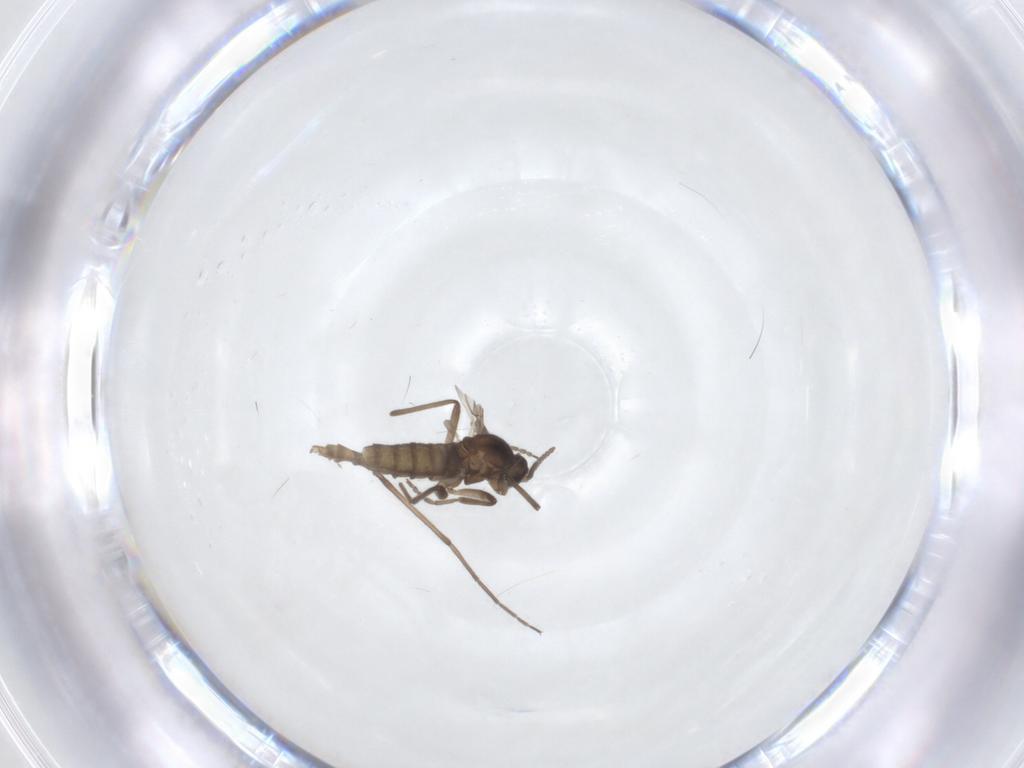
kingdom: Animalia
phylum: Arthropoda
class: Insecta
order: Diptera
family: Cecidomyiidae
